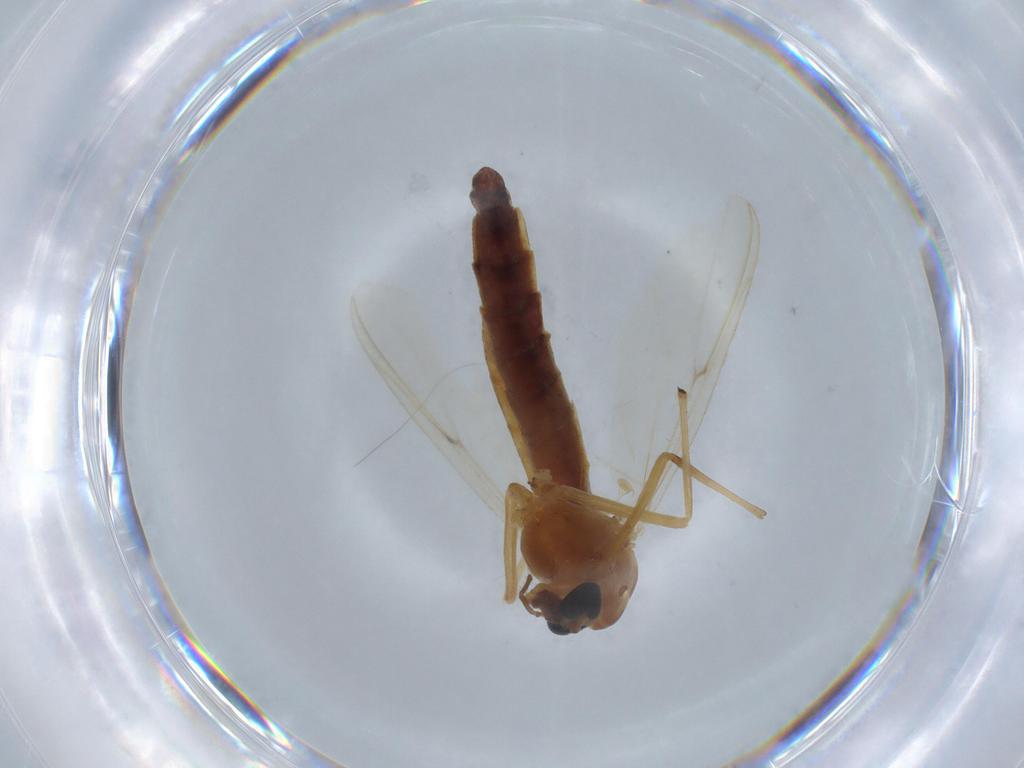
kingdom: Animalia
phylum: Arthropoda
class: Insecta
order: Diptera
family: Chironomidae
